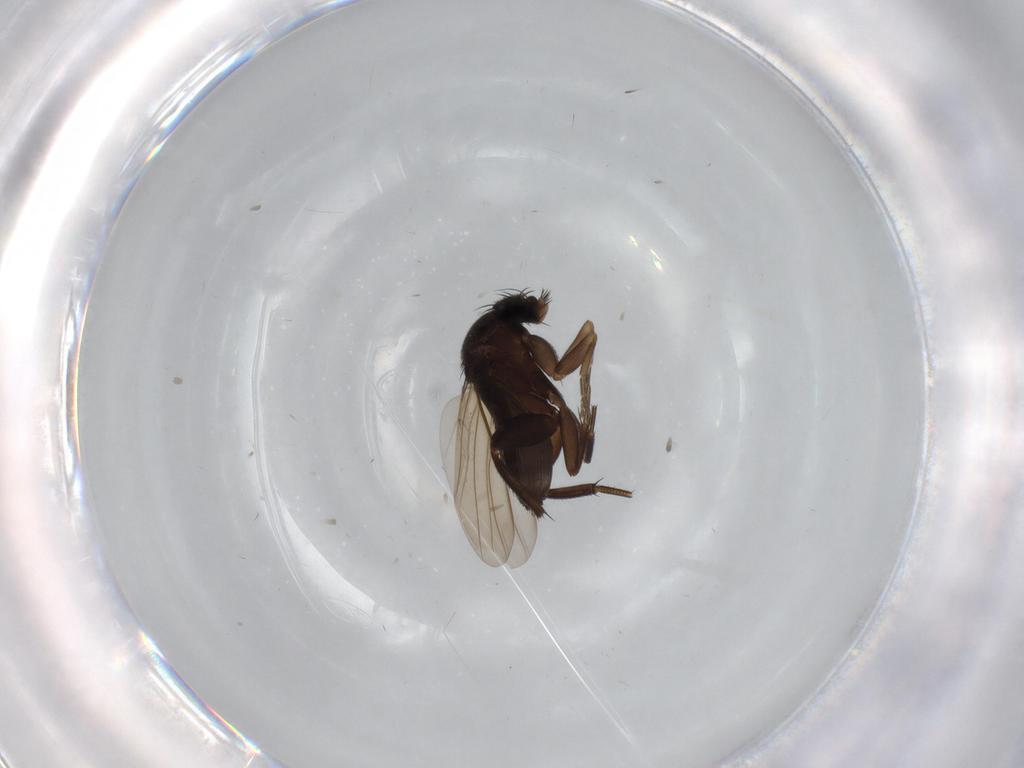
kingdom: Animalia
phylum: Arthropoda
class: Insecta
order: Diptera
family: Phoridae
